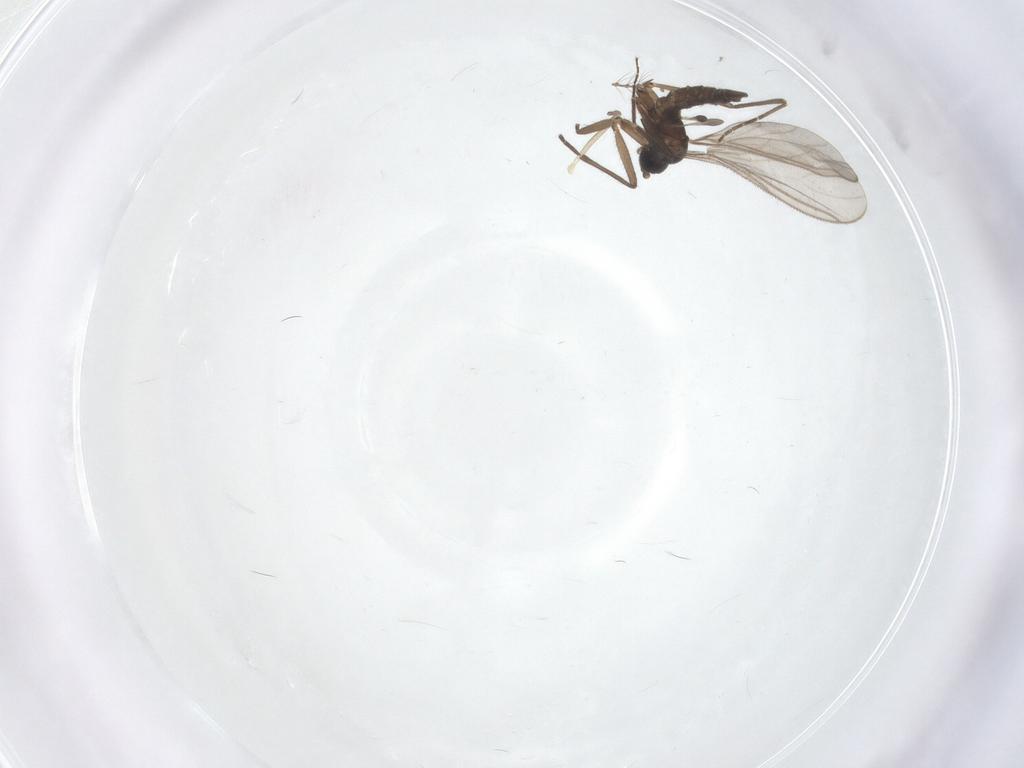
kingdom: Animalia
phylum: Arthropoda
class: Insecta
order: Diptera
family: Sciaridae
